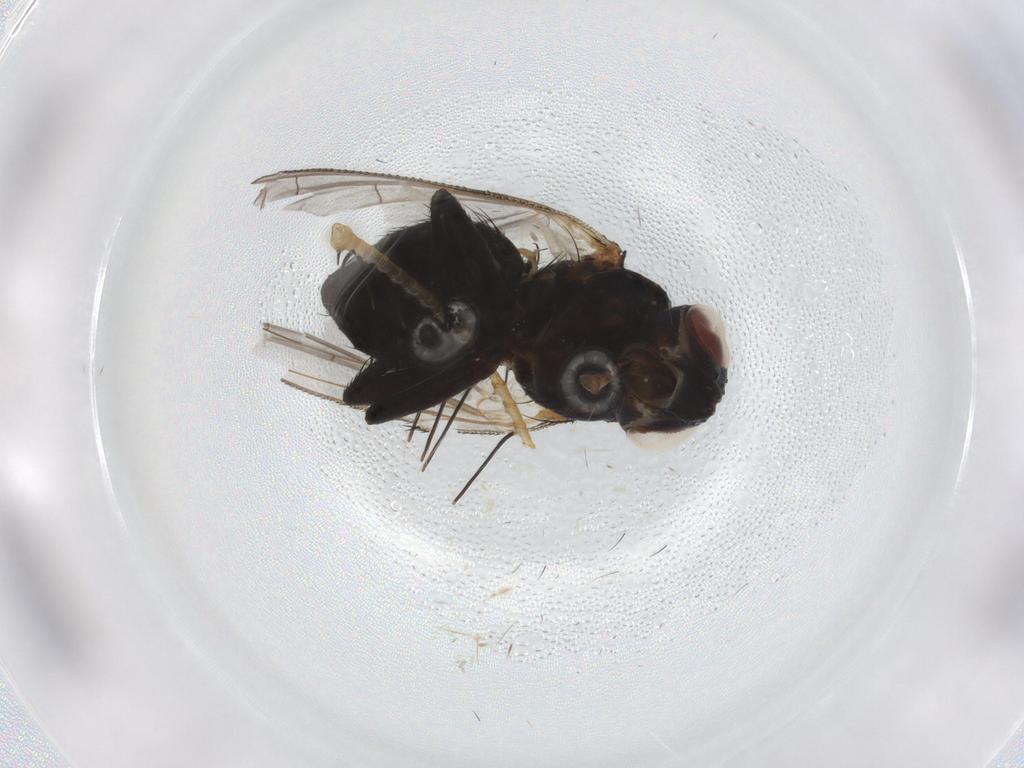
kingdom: Animalia
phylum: Arthropoda
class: Insecta
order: Diptera
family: Tachinidae
